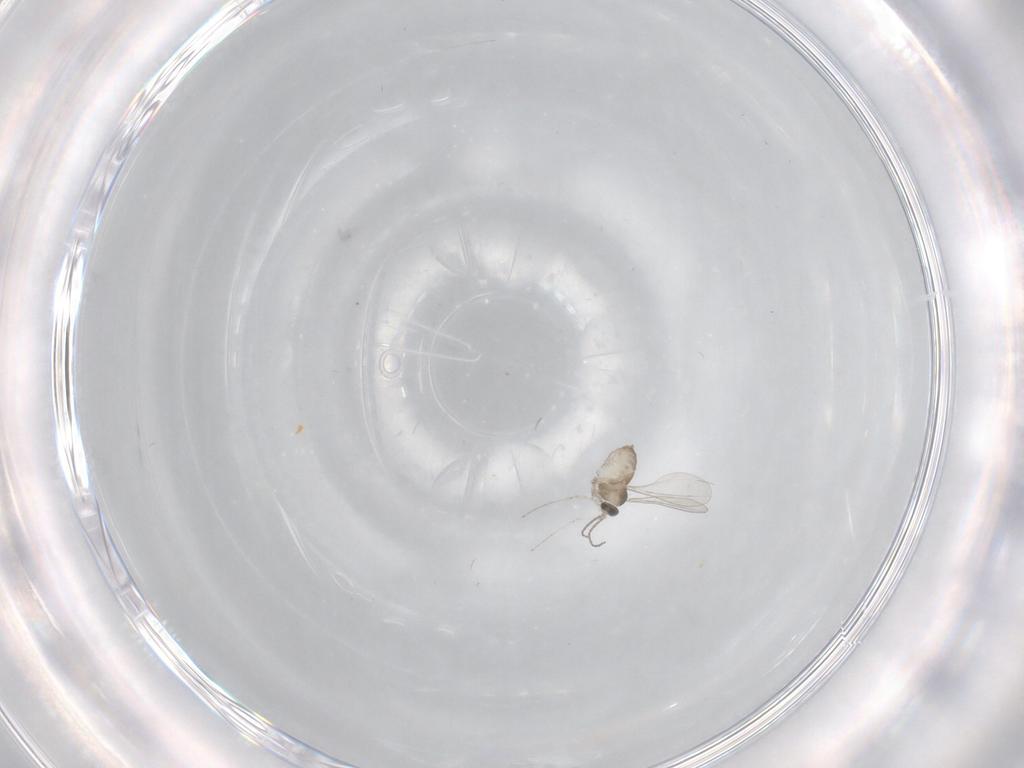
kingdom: Animalia
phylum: Arthropoda
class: Insecta
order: Diptera
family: Cecidomyiidae
